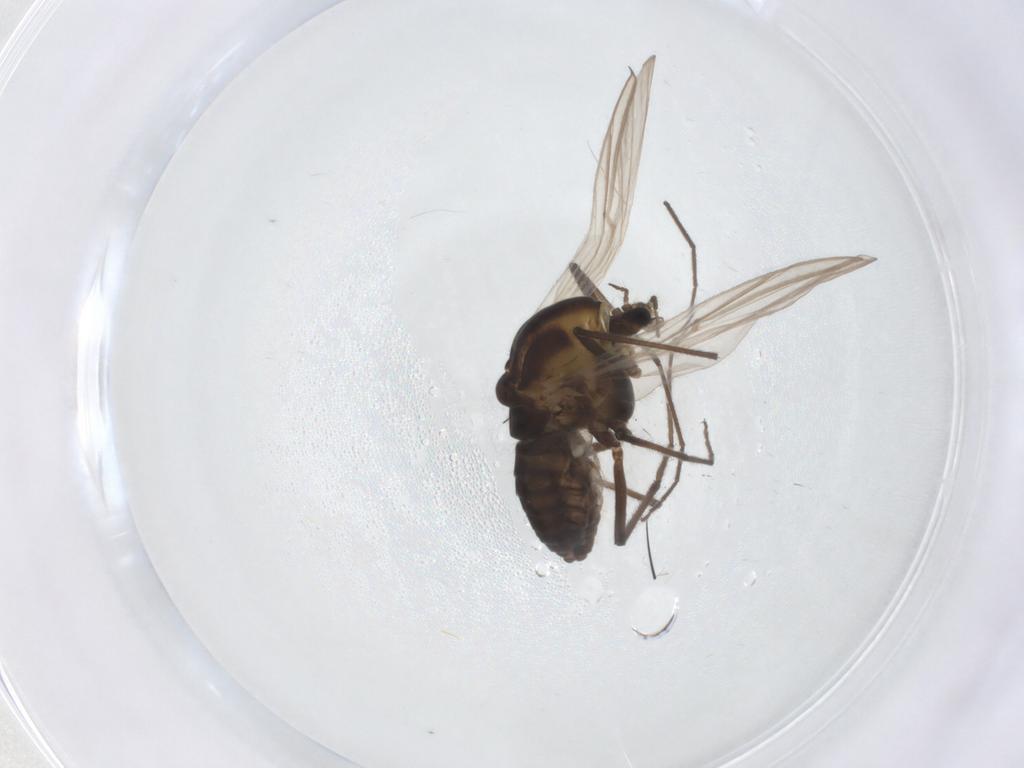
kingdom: Animalia
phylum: Arthropoda
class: Insecta
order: Diptera
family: Chironomidae
